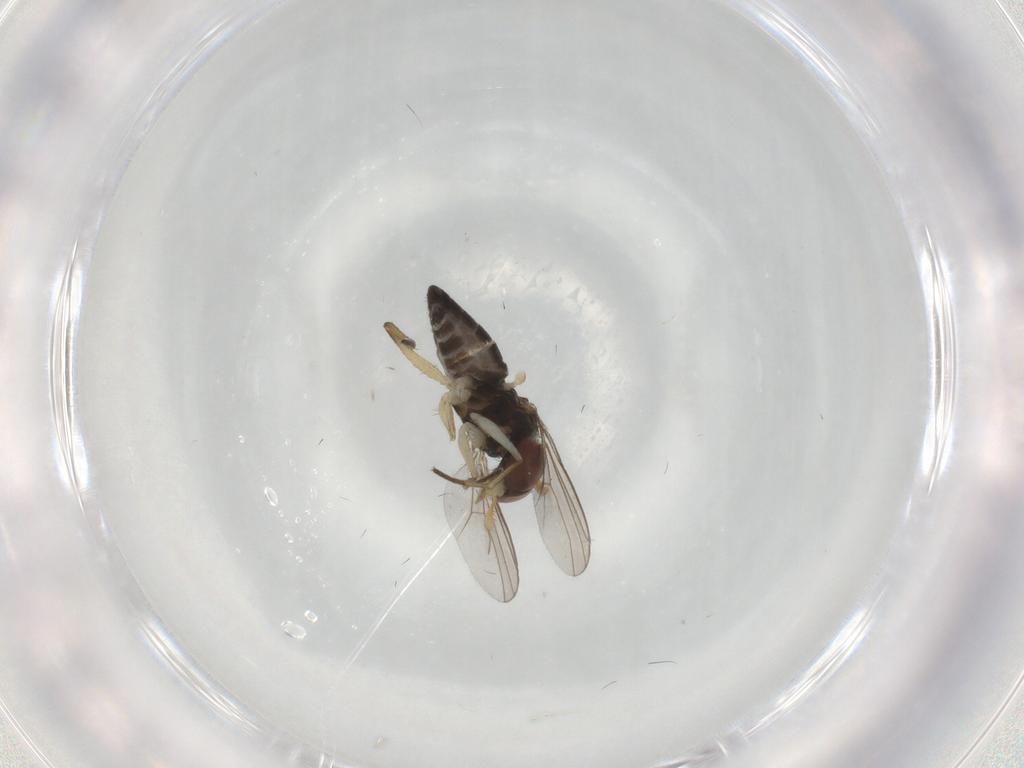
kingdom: Animalia
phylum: Arthropoda
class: Insecta
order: Diptera
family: Dolichopodidae
